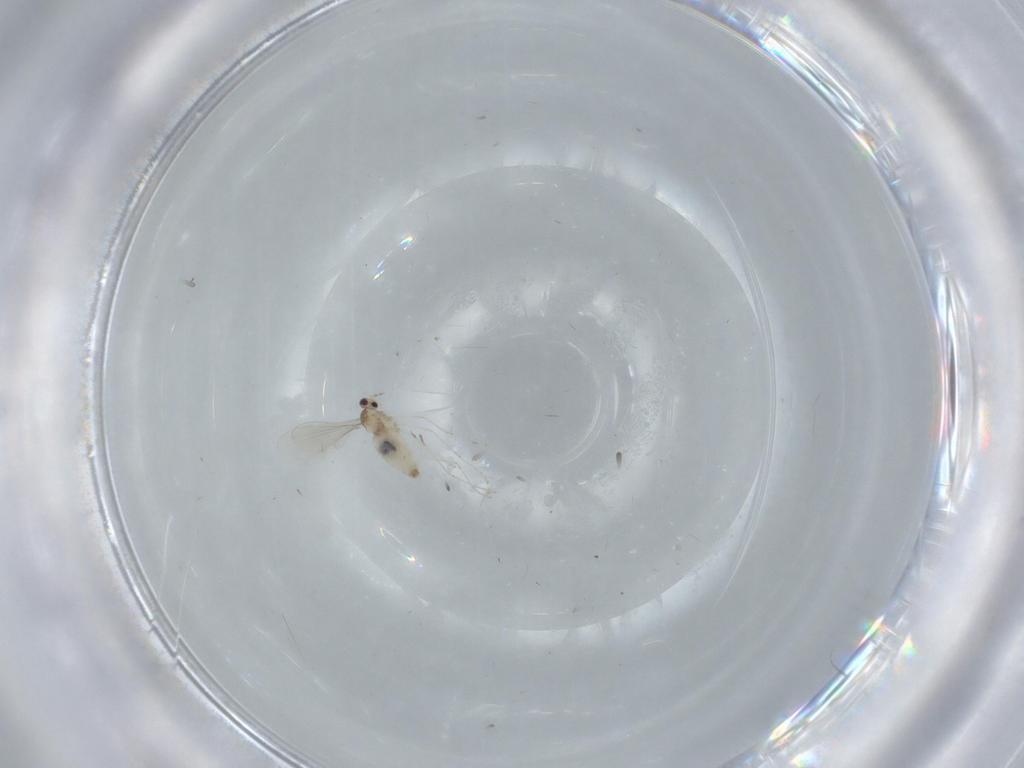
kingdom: Animalia
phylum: Arthropoda
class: Insecta
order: Diptera
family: Cecidomyiidae
